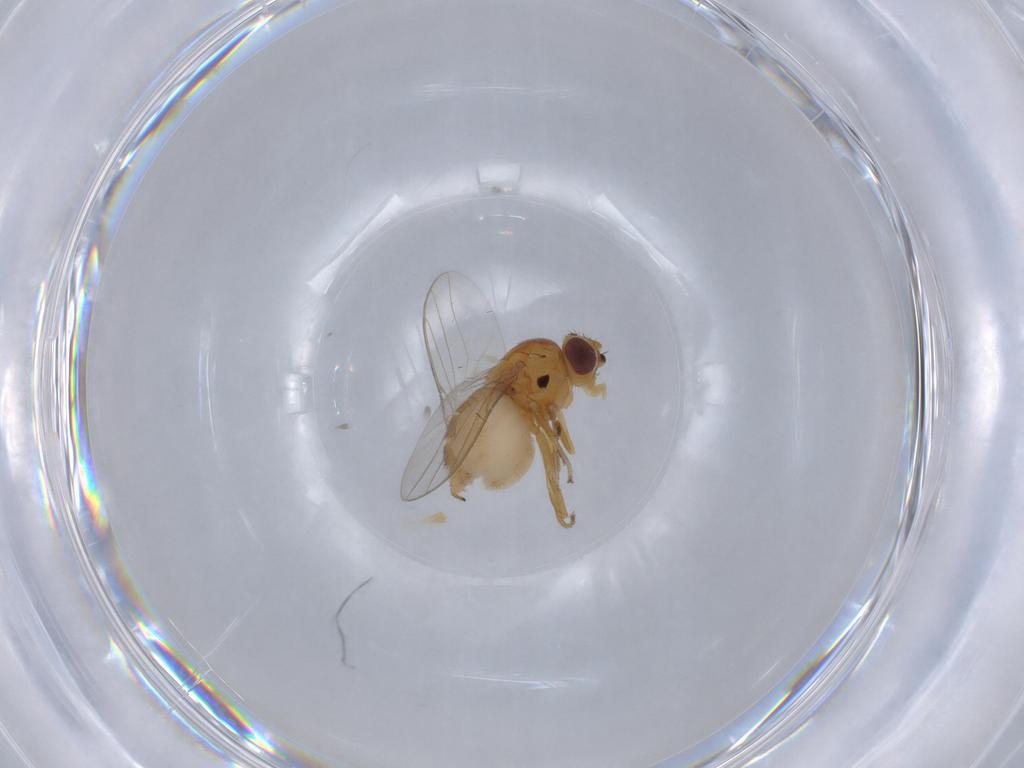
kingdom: Animalia
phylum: Arthropoda
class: Insecta
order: Diptera
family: Chloropidae
